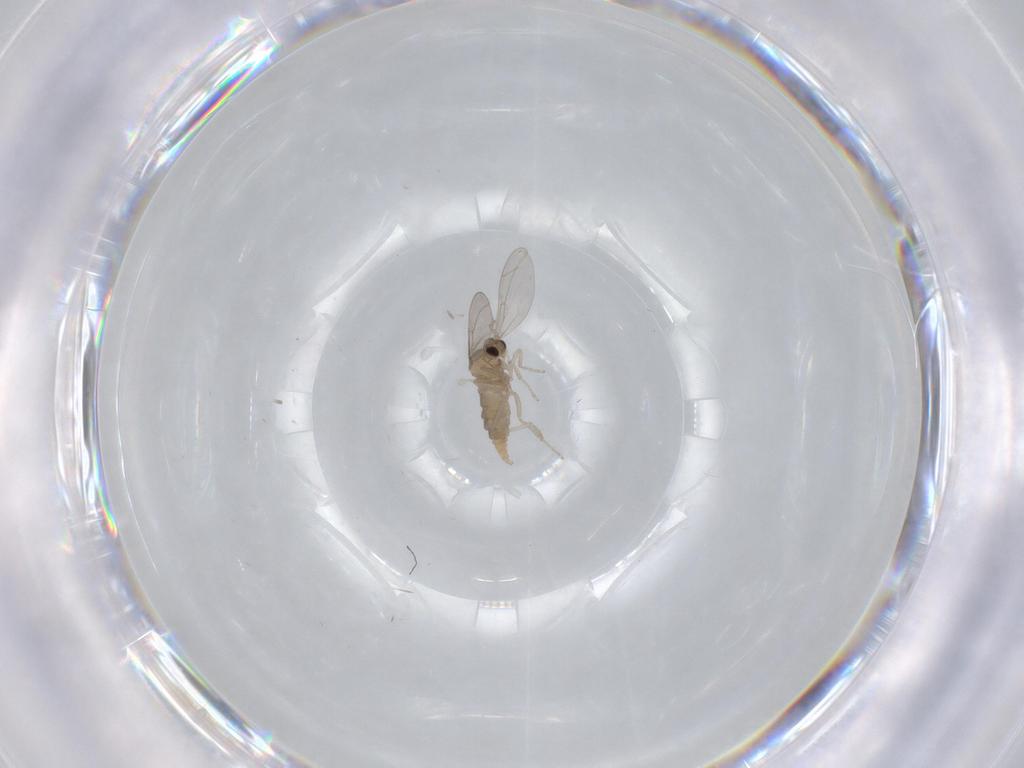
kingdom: Animalia
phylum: Arthropoda
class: Insecta
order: Diptera
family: Cecidomyiidae
